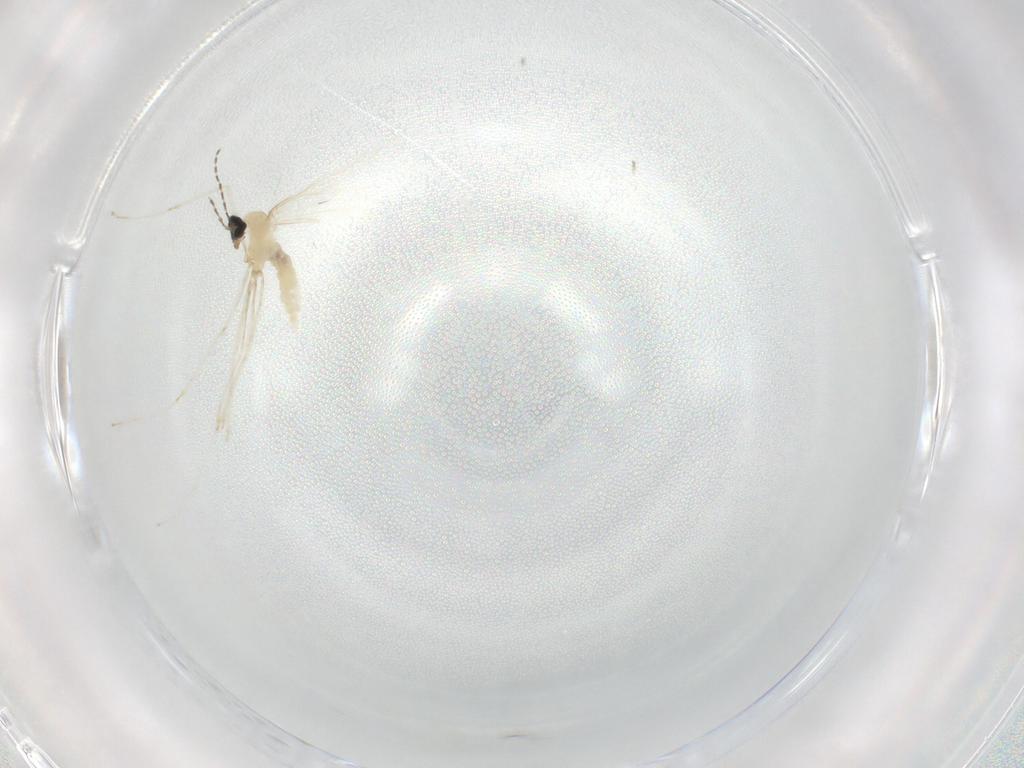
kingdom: Animalia
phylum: Arthropoda
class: Insecta
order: Diptera
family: Cecidomyiidae
